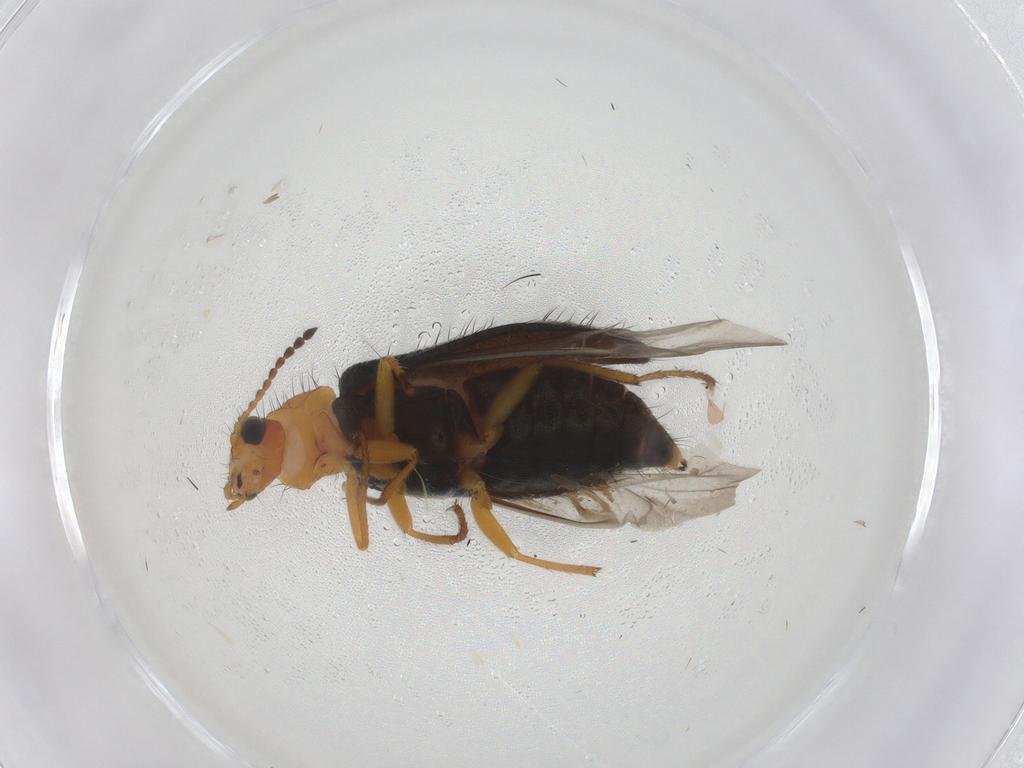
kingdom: Animalia
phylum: Arthropoda
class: Insecta
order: Coleoptera
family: Melyridae
